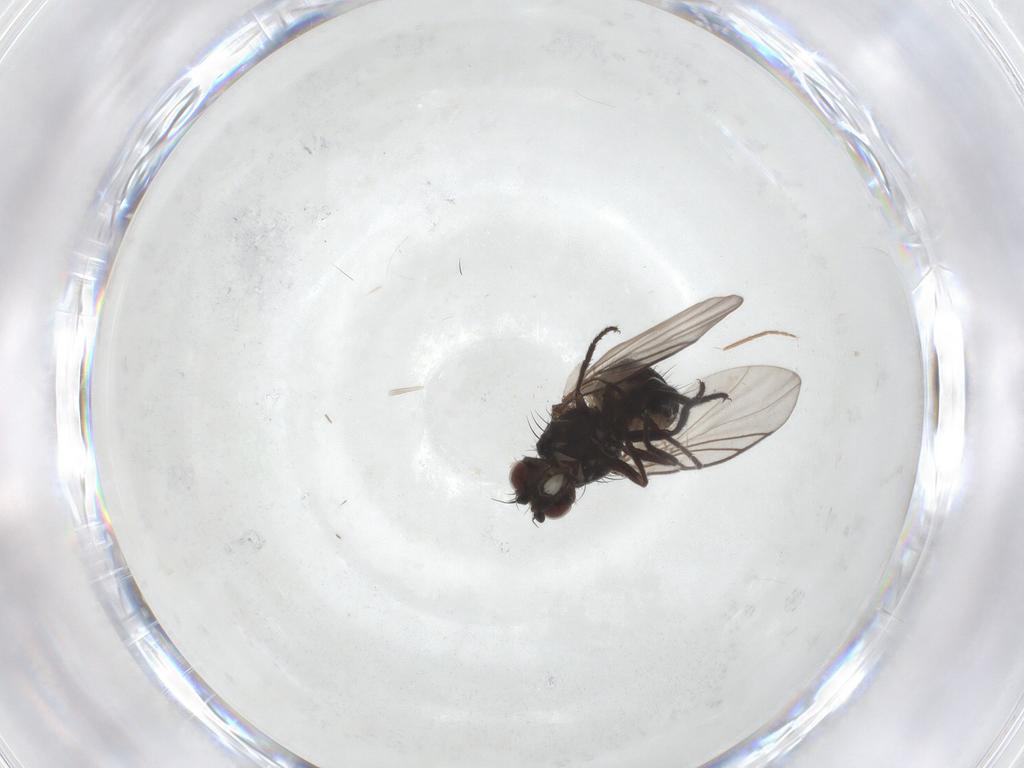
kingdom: Animalia
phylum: Arthropoda
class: Insecta
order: Diptera
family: Agromyzidae
